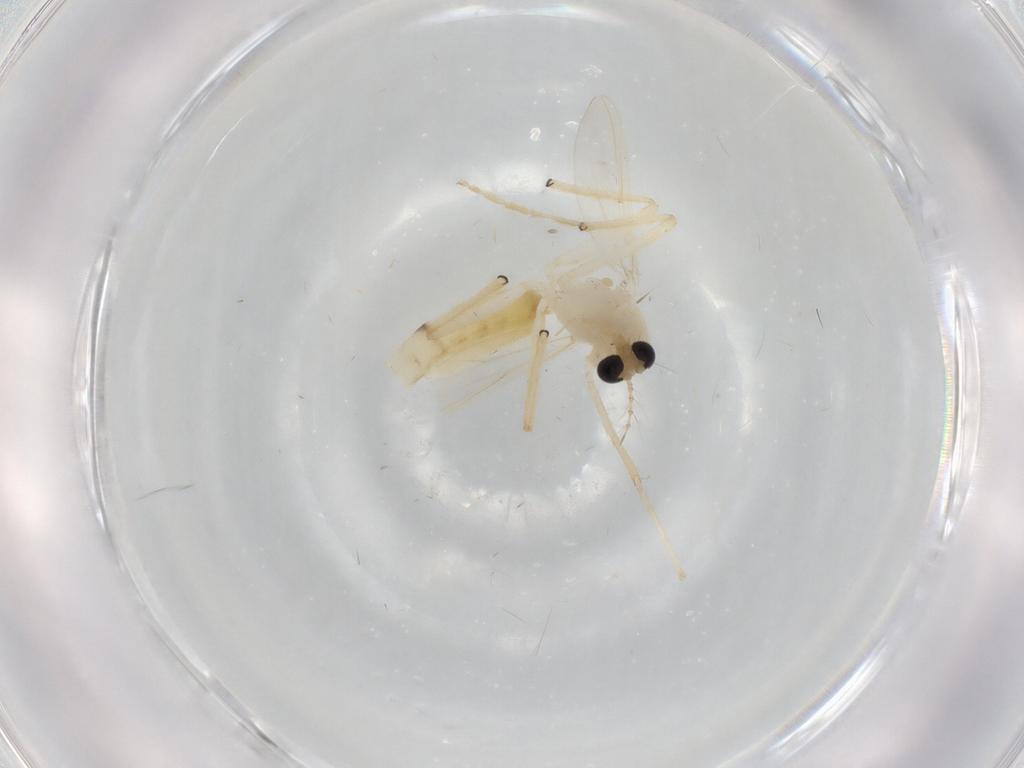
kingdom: Animalia
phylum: Arthropoda
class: Insecta
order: Diptera
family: Chironomidae
